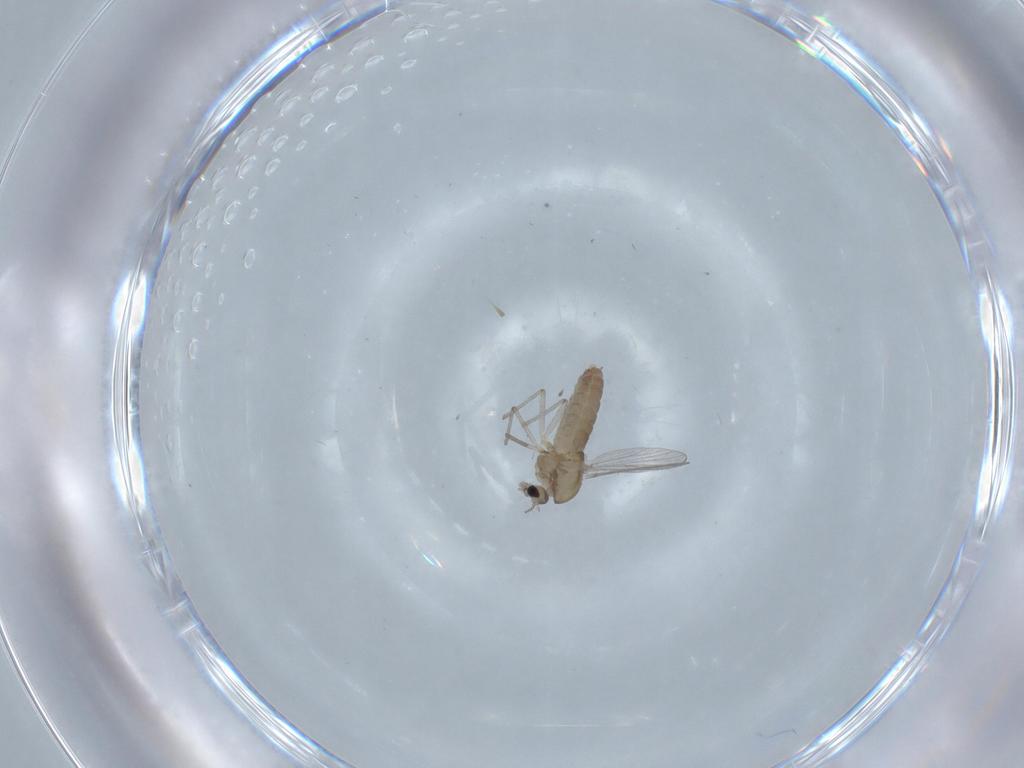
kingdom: Animalia
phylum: Arthropoda
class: Insecta
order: Diptera
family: Chironomidae
